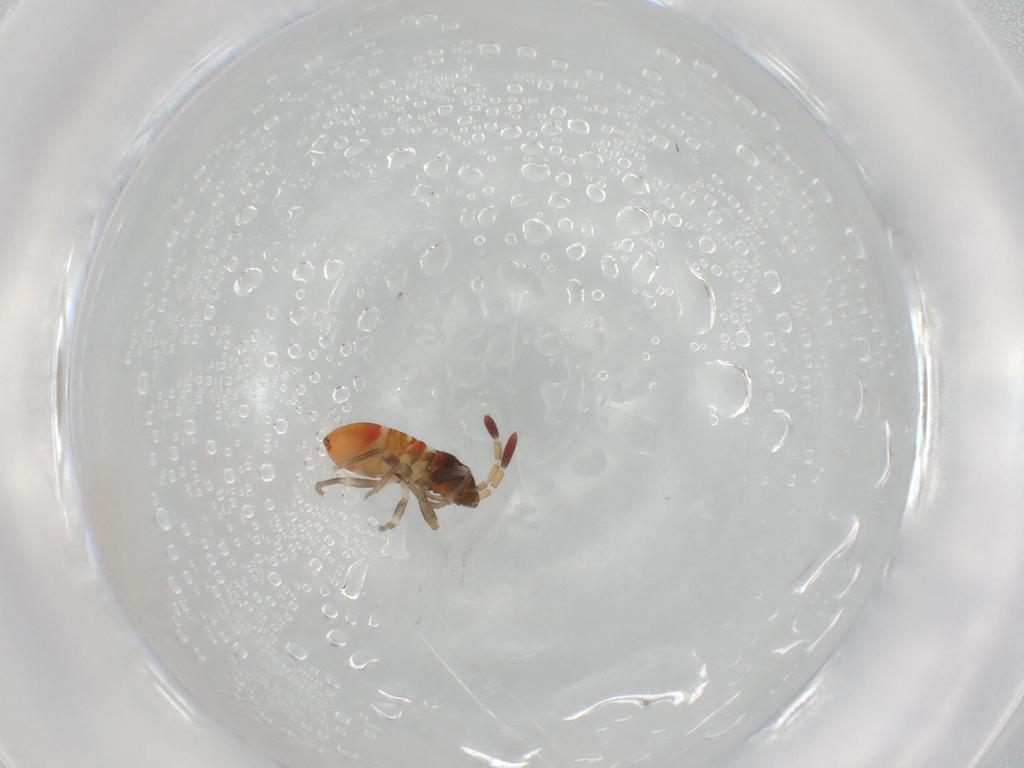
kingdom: Animalia
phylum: Arthropoda
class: Insecta
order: Hemiptera
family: Rhyparochromidae
